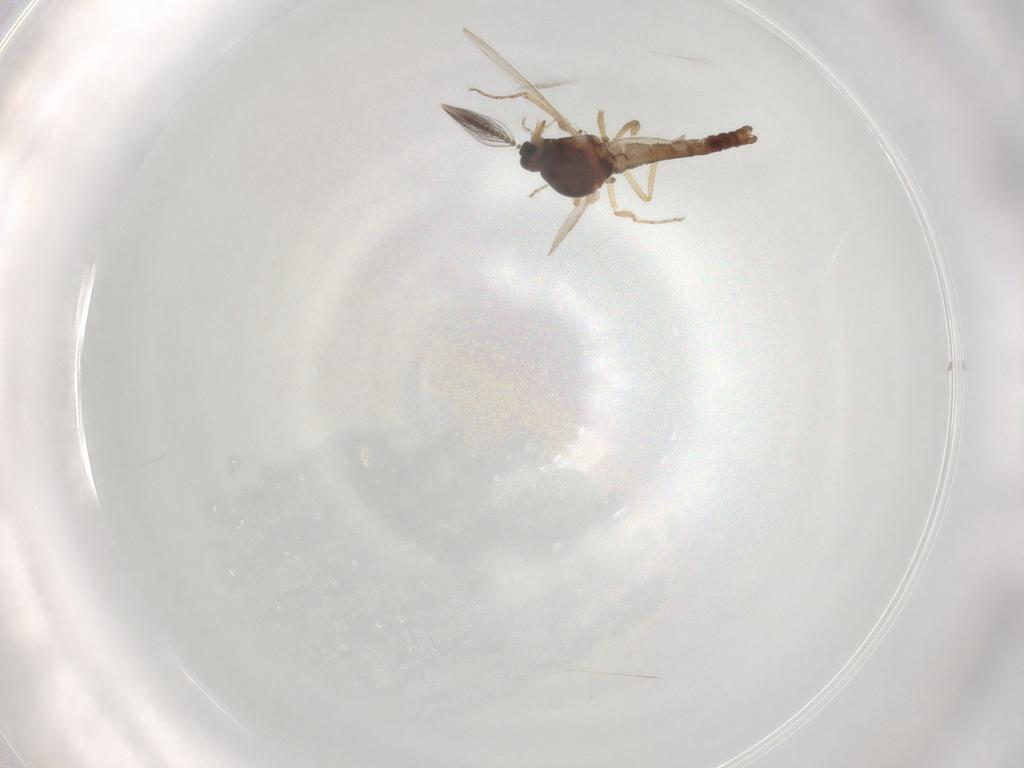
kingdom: Animalia
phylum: Arthropoda
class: Insecta
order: Diptera
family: Ceratopogonidae
